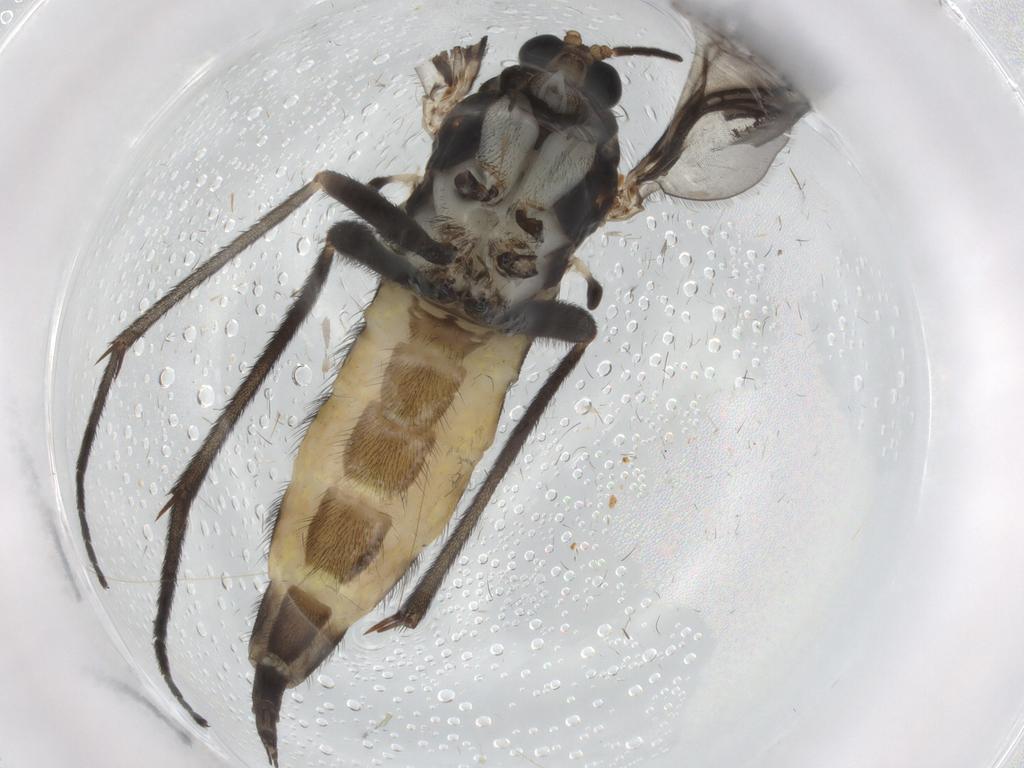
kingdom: Animalia
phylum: Arthropoda
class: Insecta
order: Diptera
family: Sciaridae
